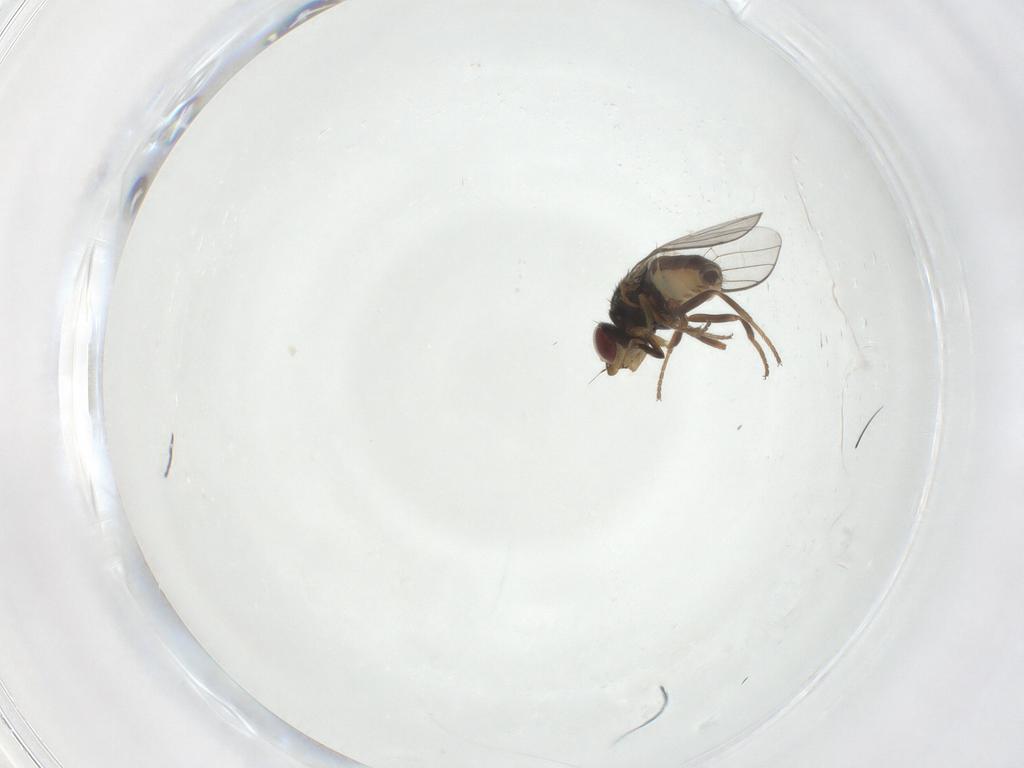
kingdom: Animalia
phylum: Arthropoda
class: Insecta
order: Diptera
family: Chloropidae
